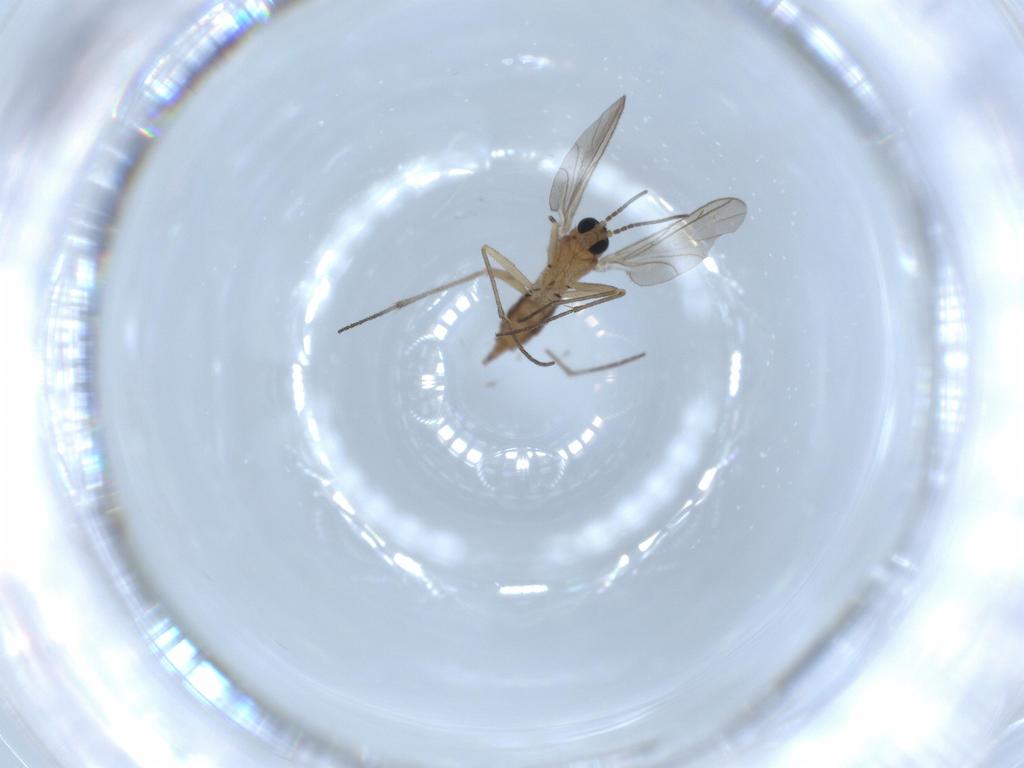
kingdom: Animalia
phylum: Arthropoda
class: Insecta
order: Diptera
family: Sciaridae
